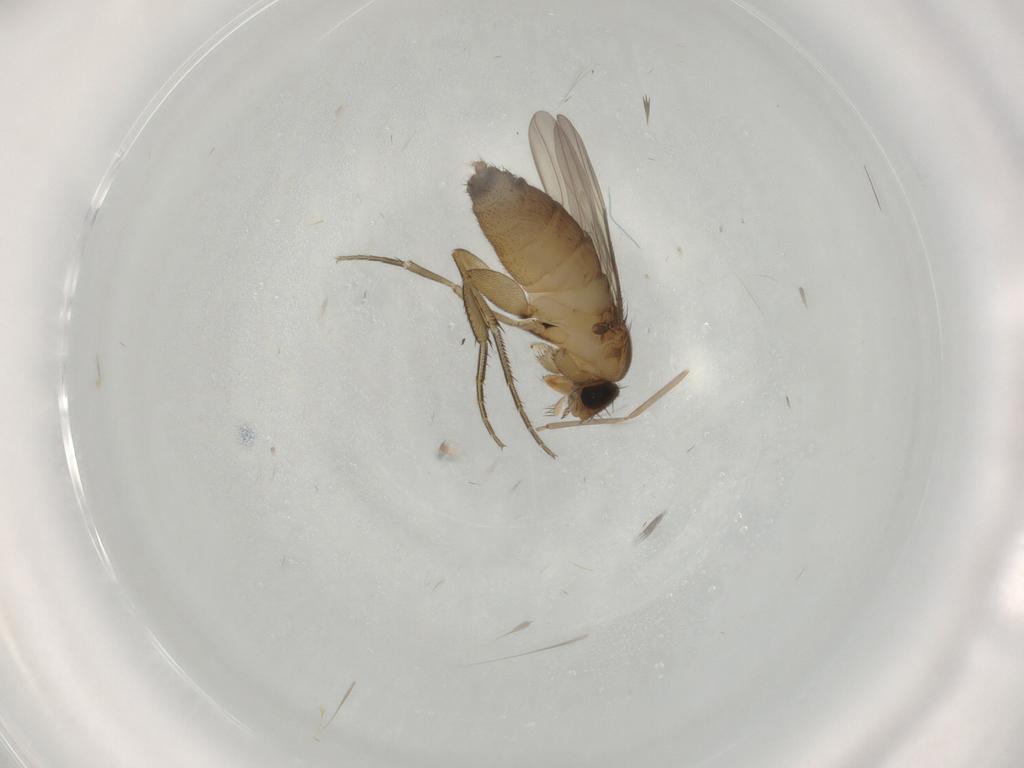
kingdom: Animalia
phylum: Arthropoda
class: Insecta
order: Diptera
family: Phoridae
